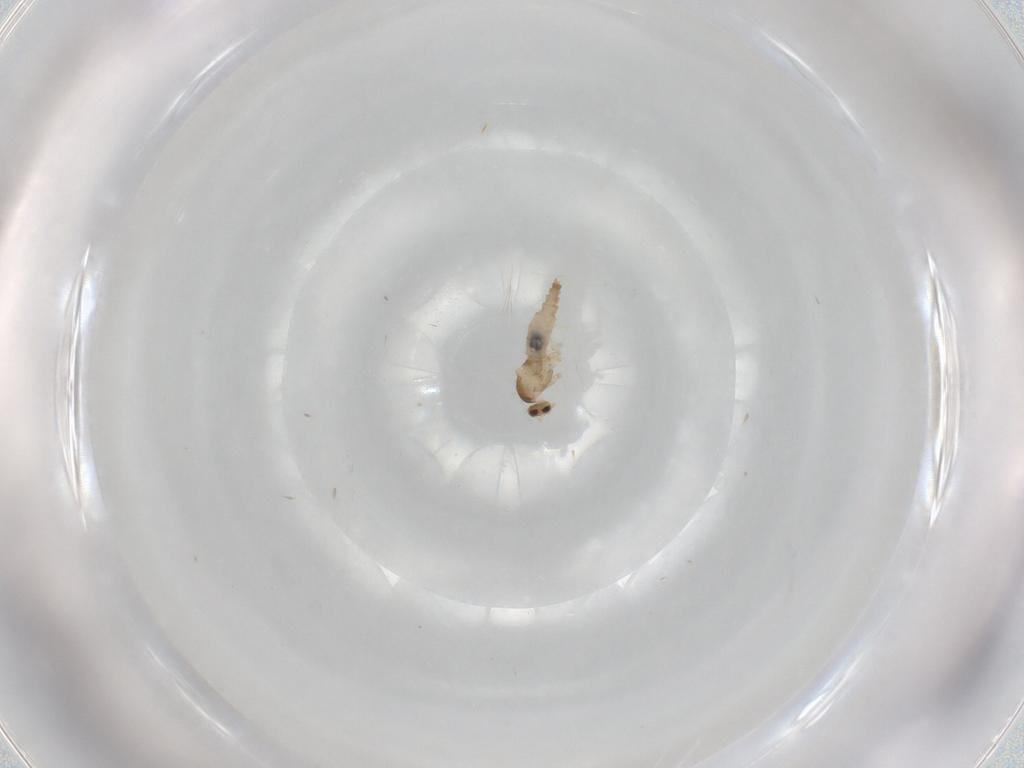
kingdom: Animalia
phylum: Arthropoda
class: Insecta
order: Diptera
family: Cecidomyiidae
